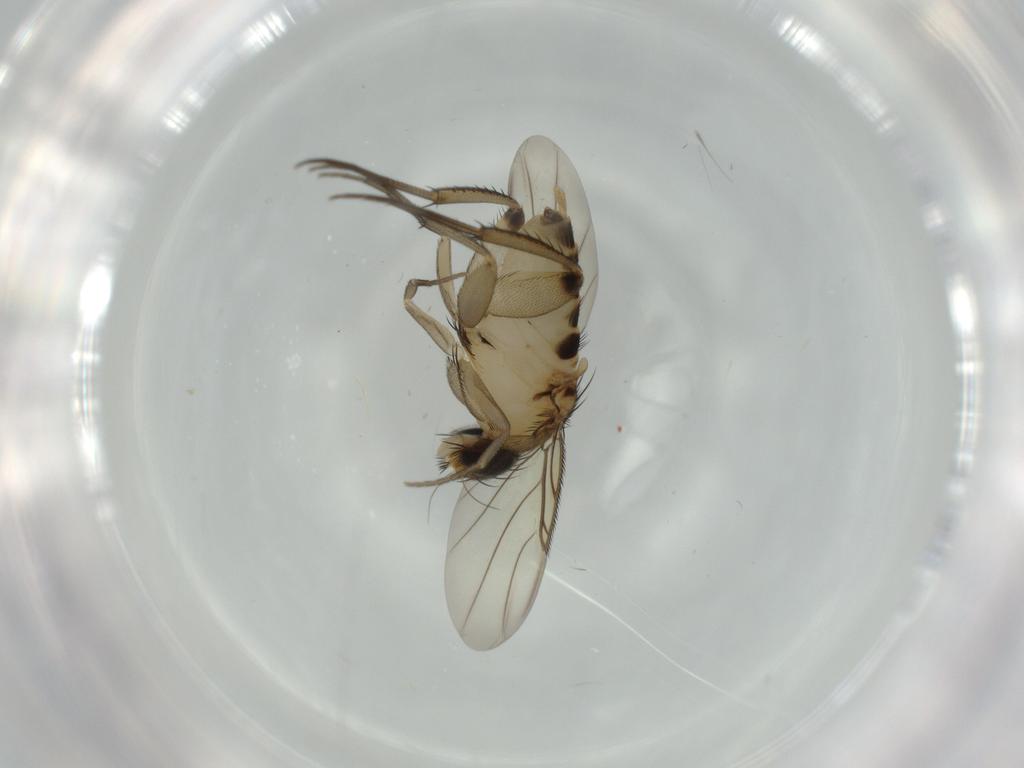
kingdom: Animalia
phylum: Arthropoda
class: Insecta
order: Diptera
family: Phoridae
